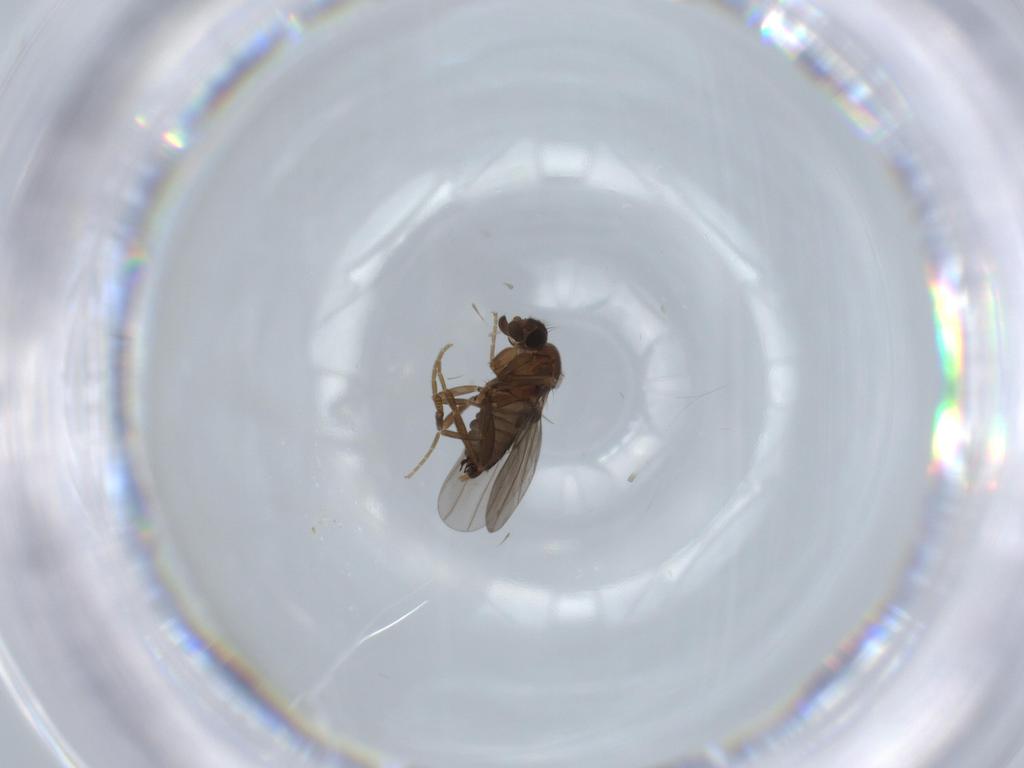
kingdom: Animalia
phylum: Arthropoda
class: Insecta
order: Diptera
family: Phoridae
